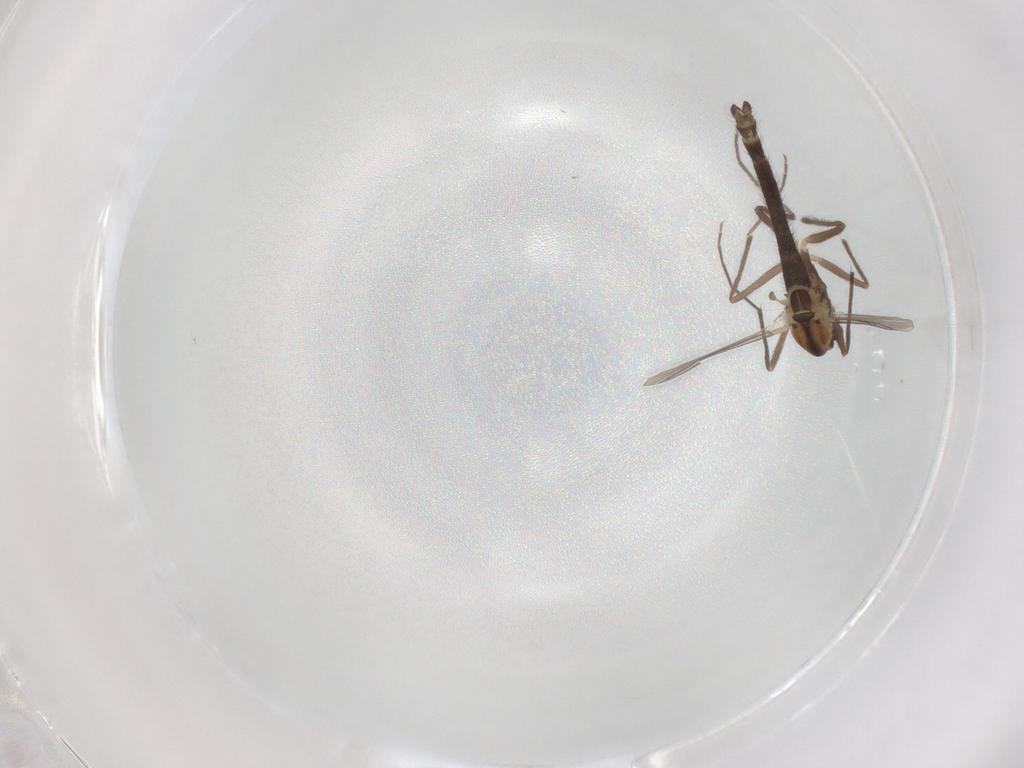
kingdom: Animalia
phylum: Arthropoda
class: Insecta
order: Diptera
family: Chironomidae
